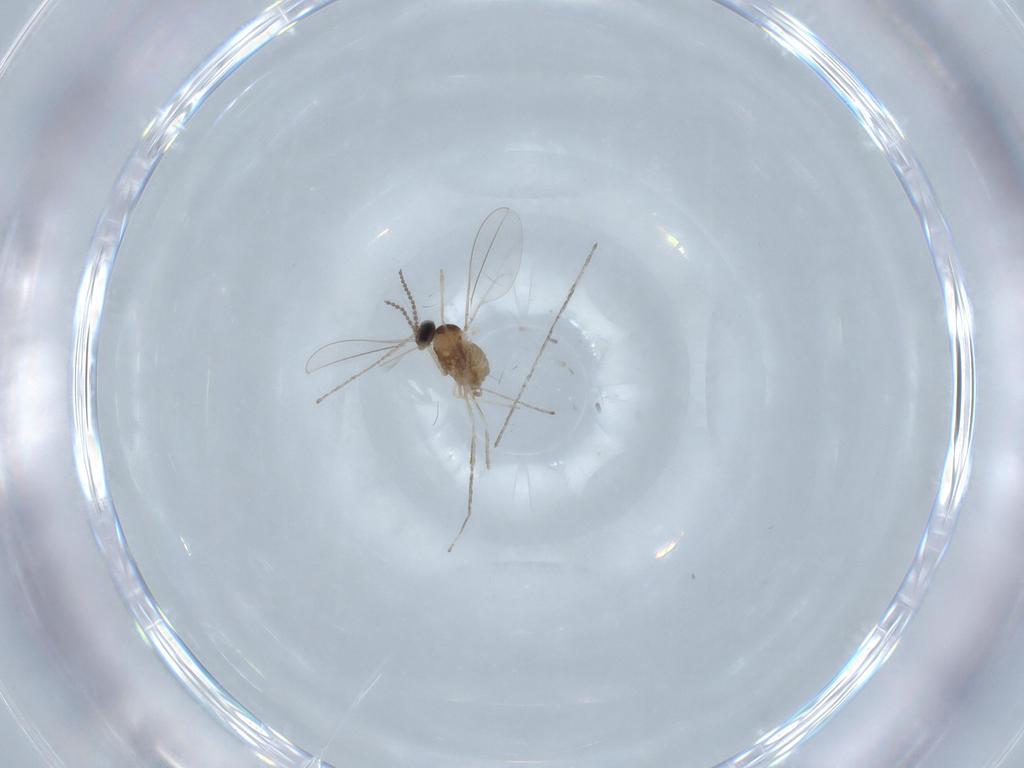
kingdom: Animalia
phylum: Arthropoda
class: Insecta
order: Diptera
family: Cecidomyiidae
